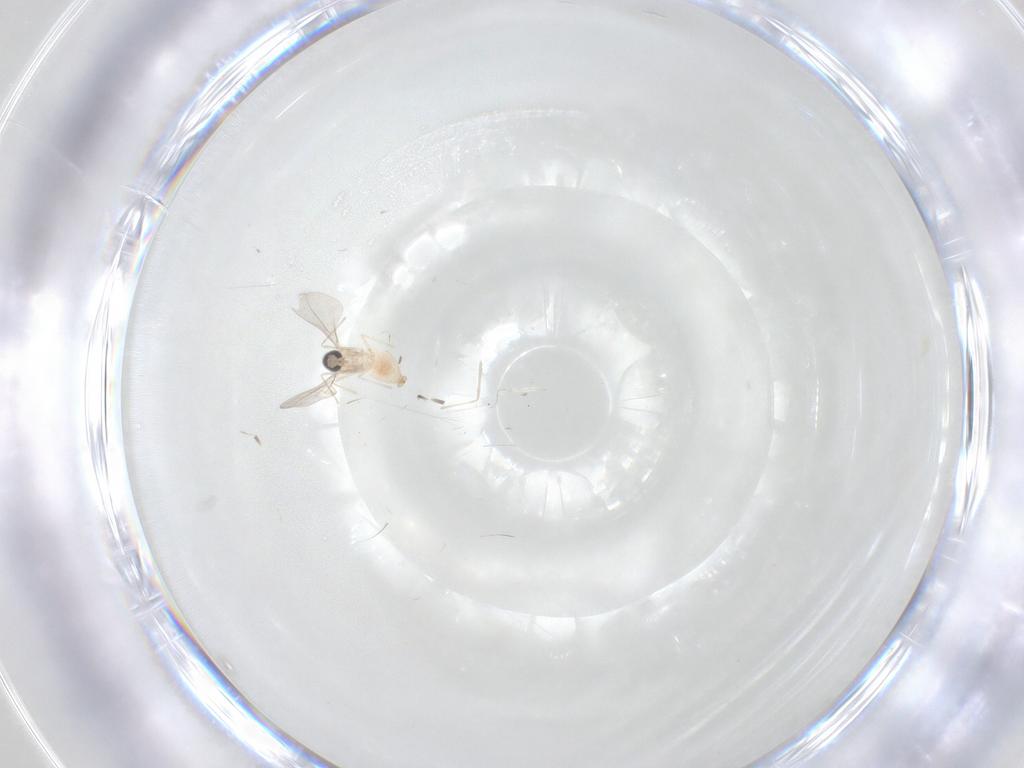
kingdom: Animalia
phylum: Arthropoda
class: Insecta
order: Diptera
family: Cecidomyiidae
